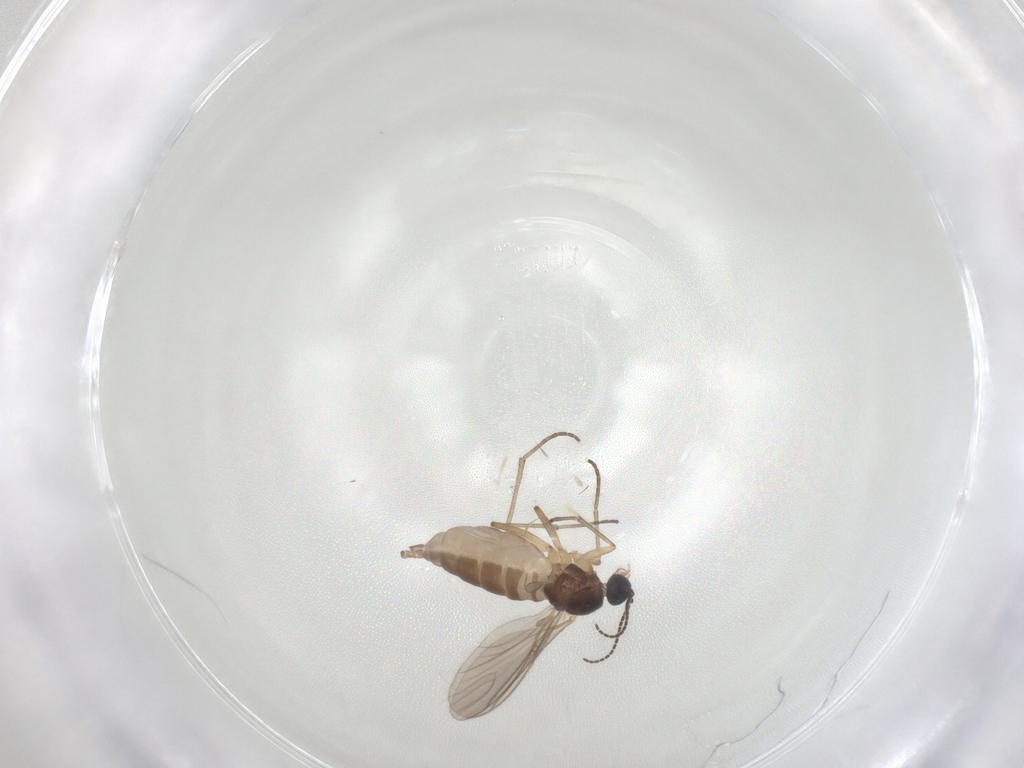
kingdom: Animalia
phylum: Arthropoda
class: Insecta
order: Diptera
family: Sciaridae
